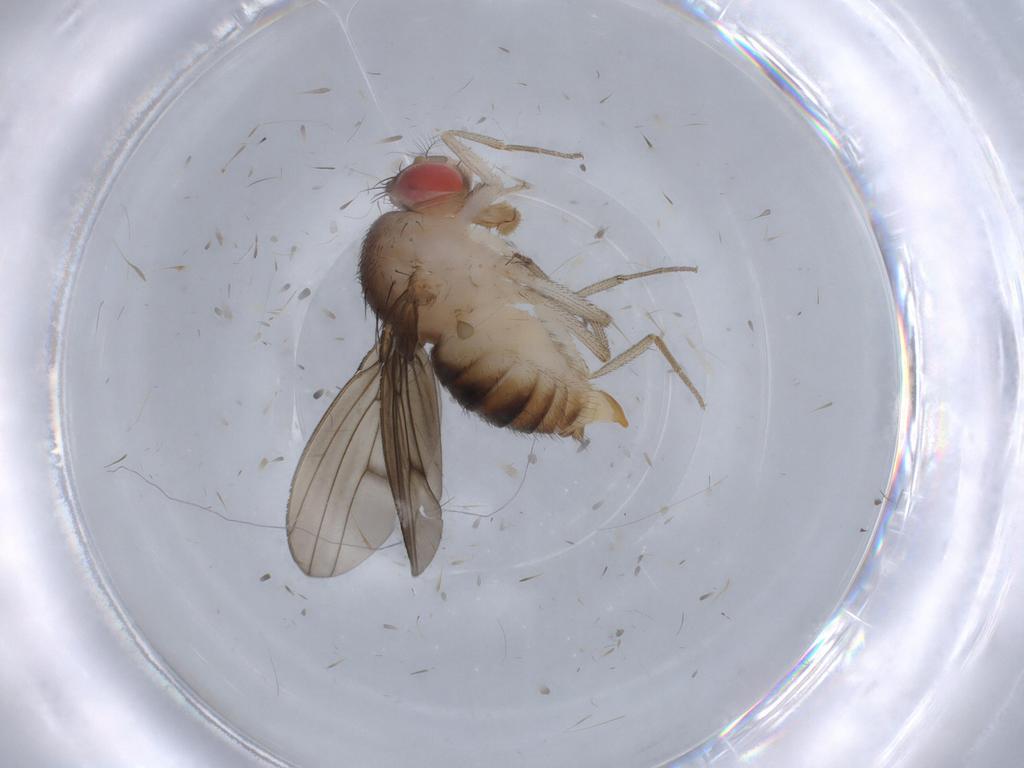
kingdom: Animalia
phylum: Arthropoda
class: Insecta
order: Diptera
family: Drosophilidae
